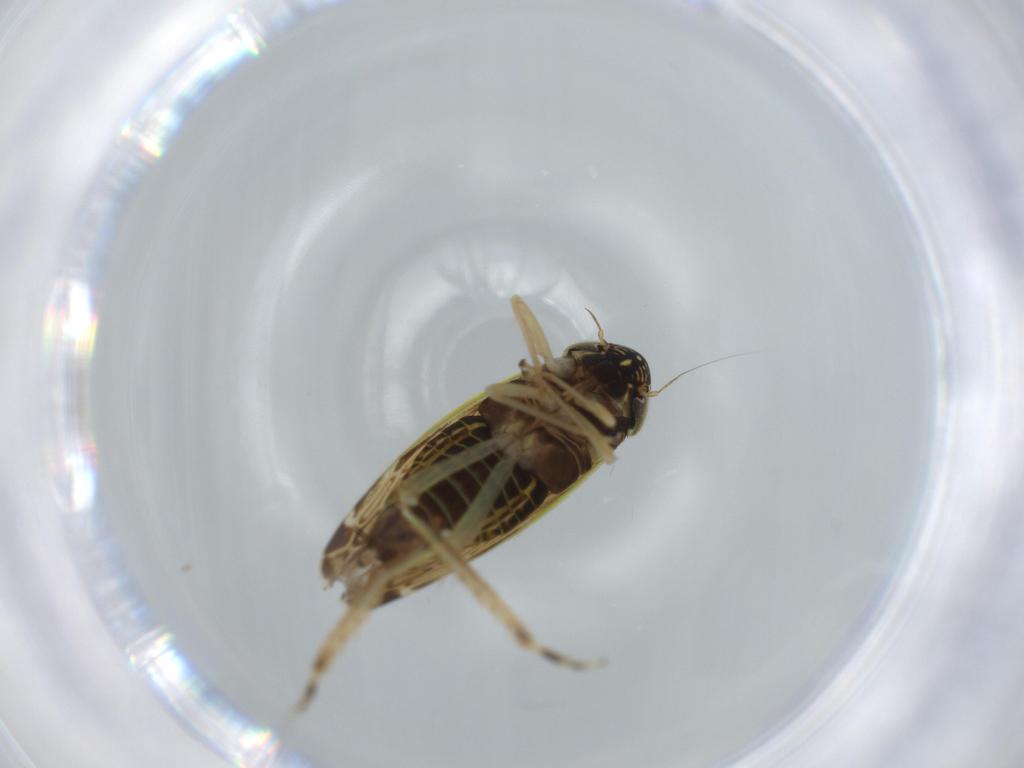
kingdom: Animalia
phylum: Arthropoda
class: Insecta
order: Hemiptera
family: Cicadellidae
